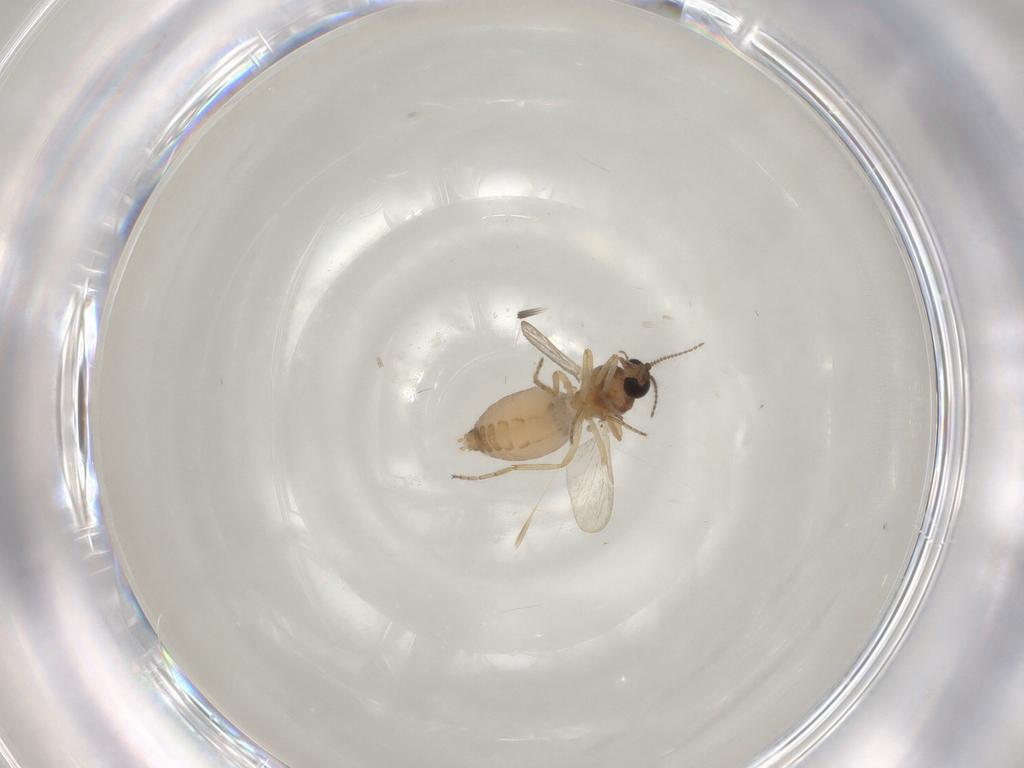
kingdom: Animalia
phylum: Arthropoda
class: Insecta
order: Diptera
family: Ceratopogonidae
